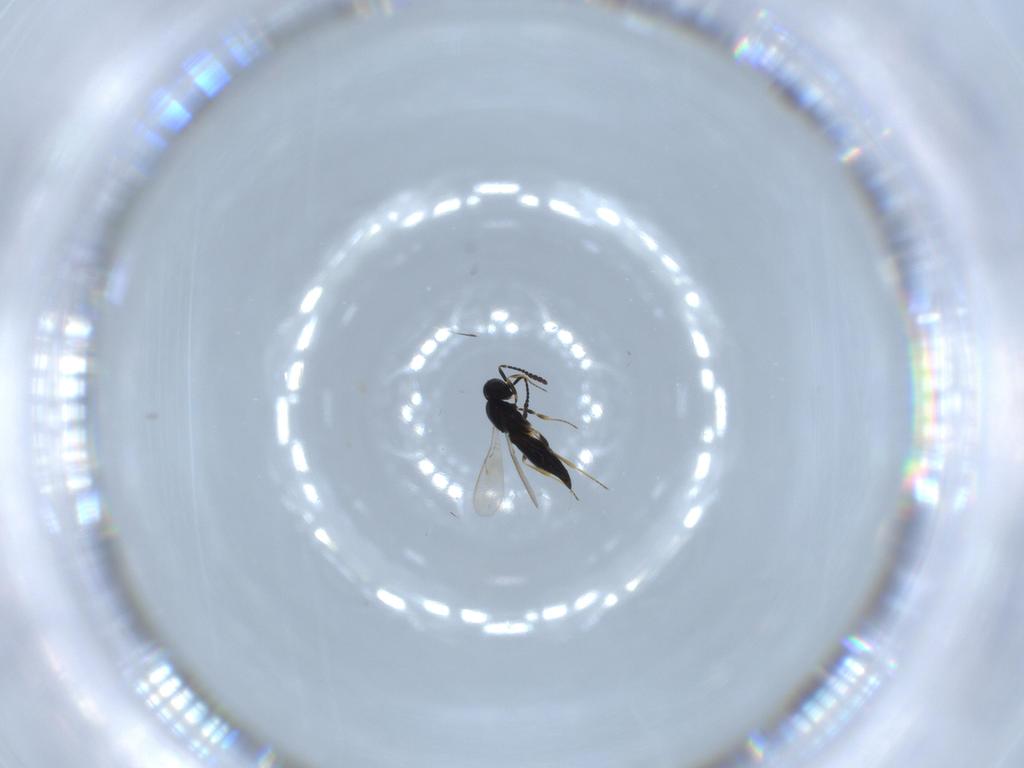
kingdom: Animalia
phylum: Arthropoda
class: Insecta
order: Hymenoptera
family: Scelionidae
